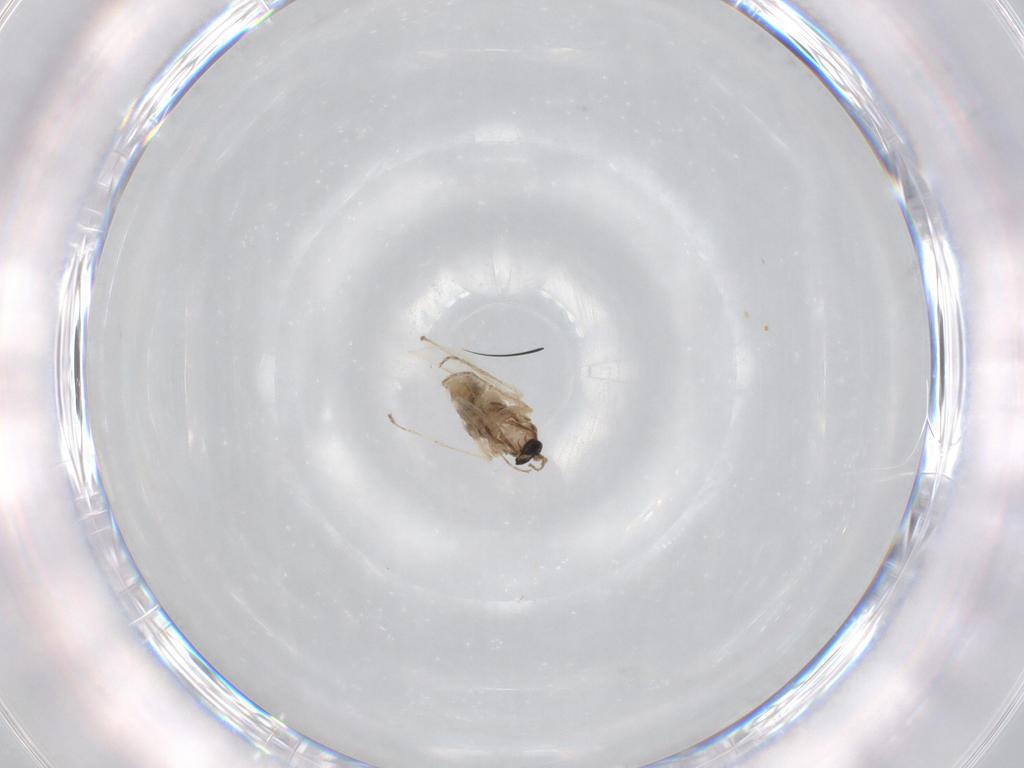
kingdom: Animalia
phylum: Arthropoda
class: Insecta
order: Diptera
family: Cecidomyiidae
